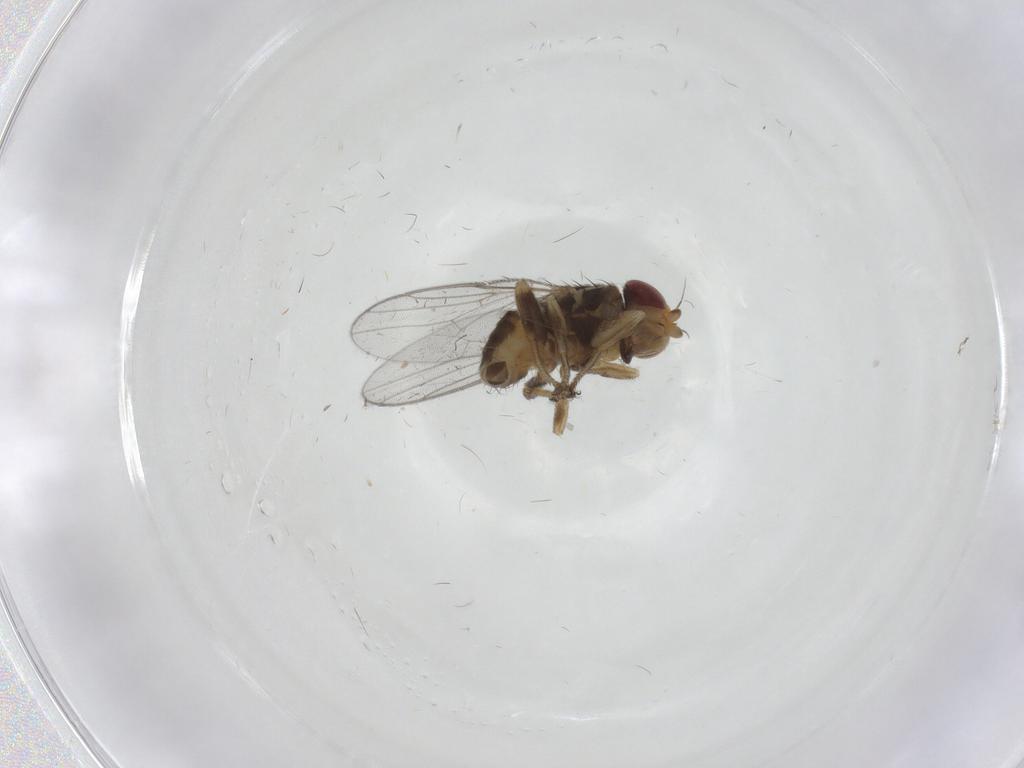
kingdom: Animalia
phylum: Arthropoda
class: Insecta
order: Diptera
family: Chloropidae
